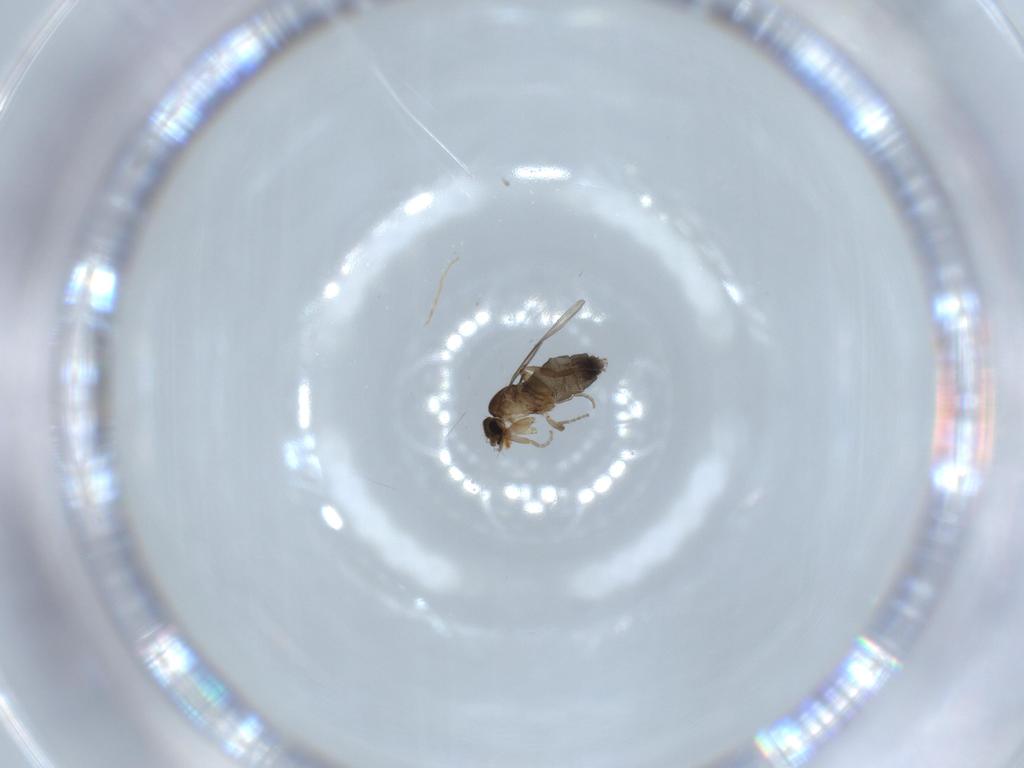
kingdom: Animalia
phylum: Arthropoda
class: Insecta
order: Diptera
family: Phoridae
